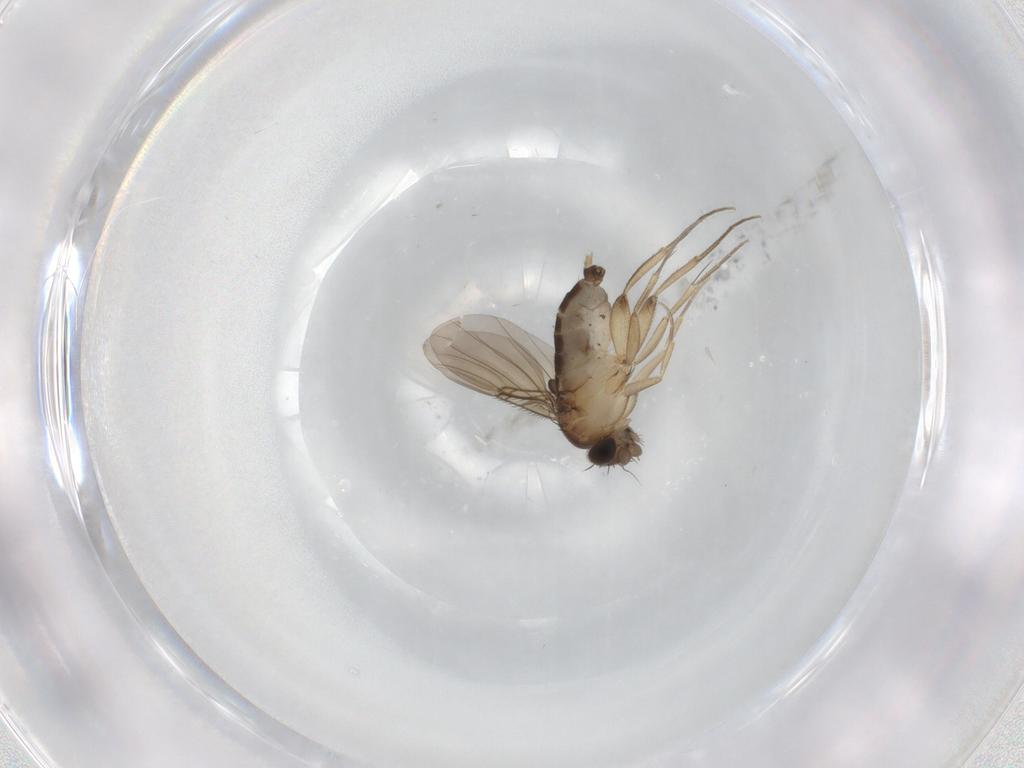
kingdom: Animalia
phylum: Arthropoda
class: Insecta
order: Diptera
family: Phoridae
